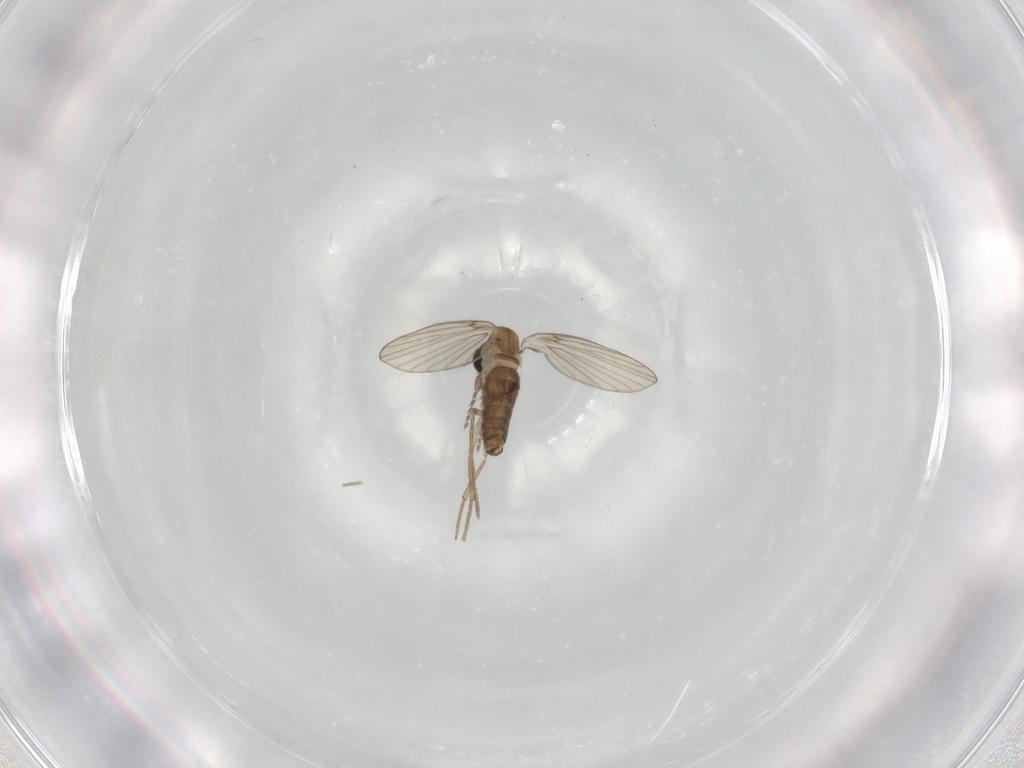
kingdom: Animalia
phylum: Arthropoda
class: Insecta
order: Diptera
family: Psychodidae
